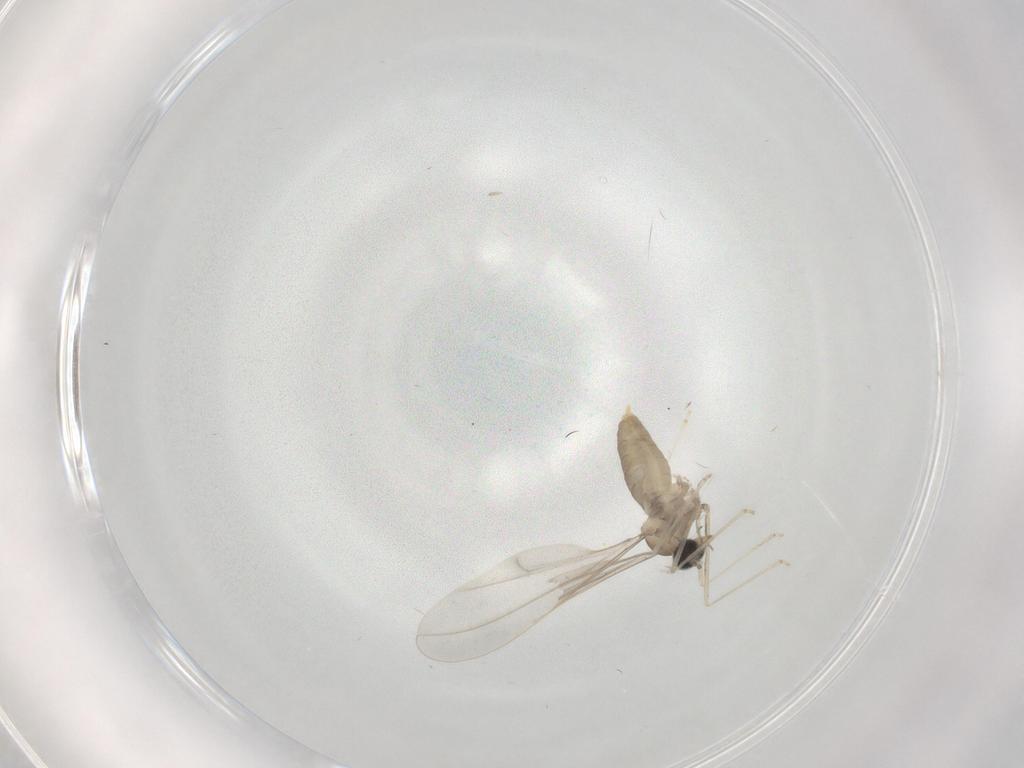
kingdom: Animalia
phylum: Arthropoda
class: Insecta
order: Diptera
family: Cecidomyiidae
